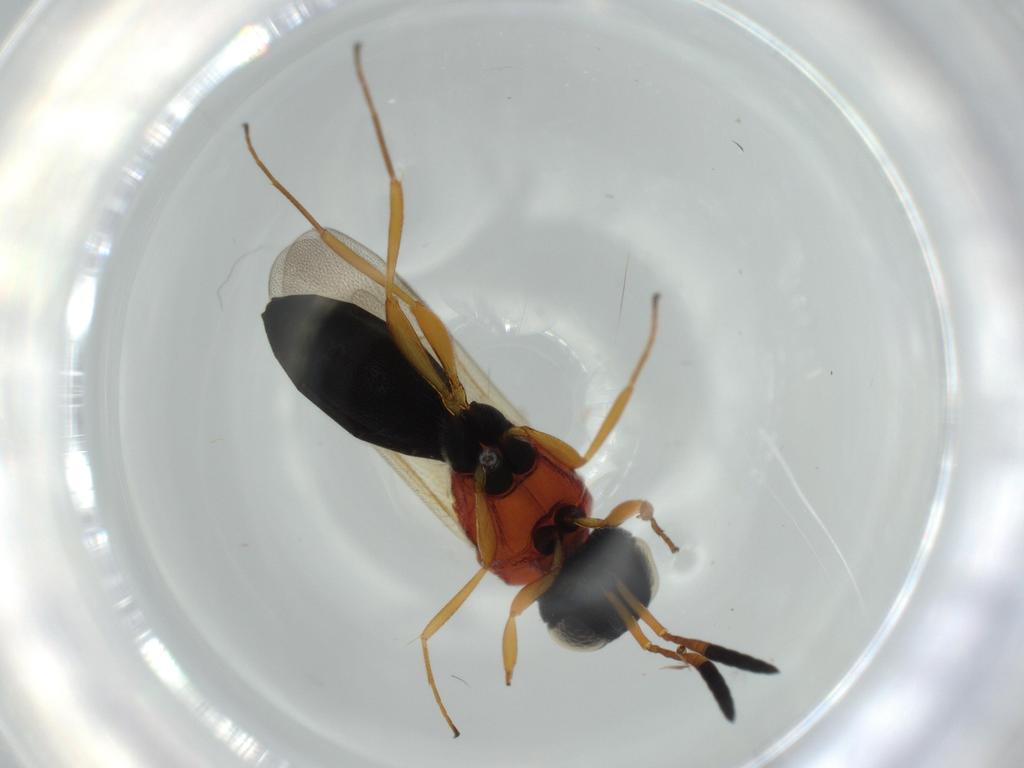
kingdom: Animalia
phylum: Arthropoda
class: Insecta
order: Hymenoptera
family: Scelionidae
